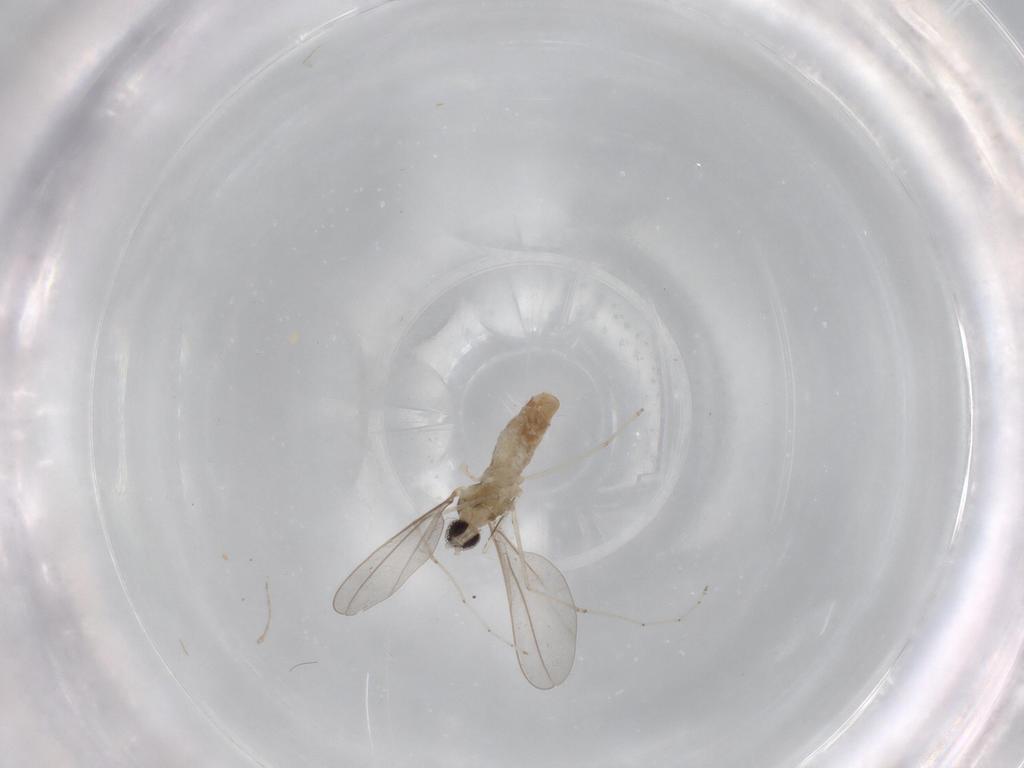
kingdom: Animalia
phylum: Arthropoda
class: Insecta
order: Diptera
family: Cecidomyiidae
